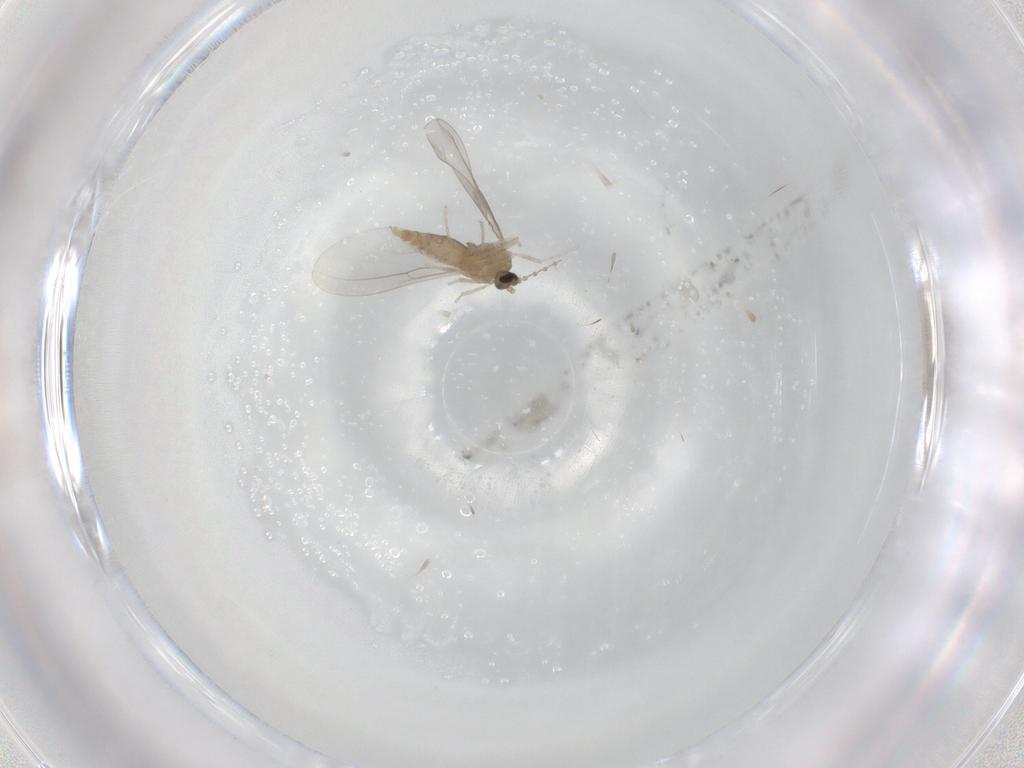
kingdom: Animalia
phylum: Arthropoda
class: Insecta
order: Diptera
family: Cecidomyiidae
